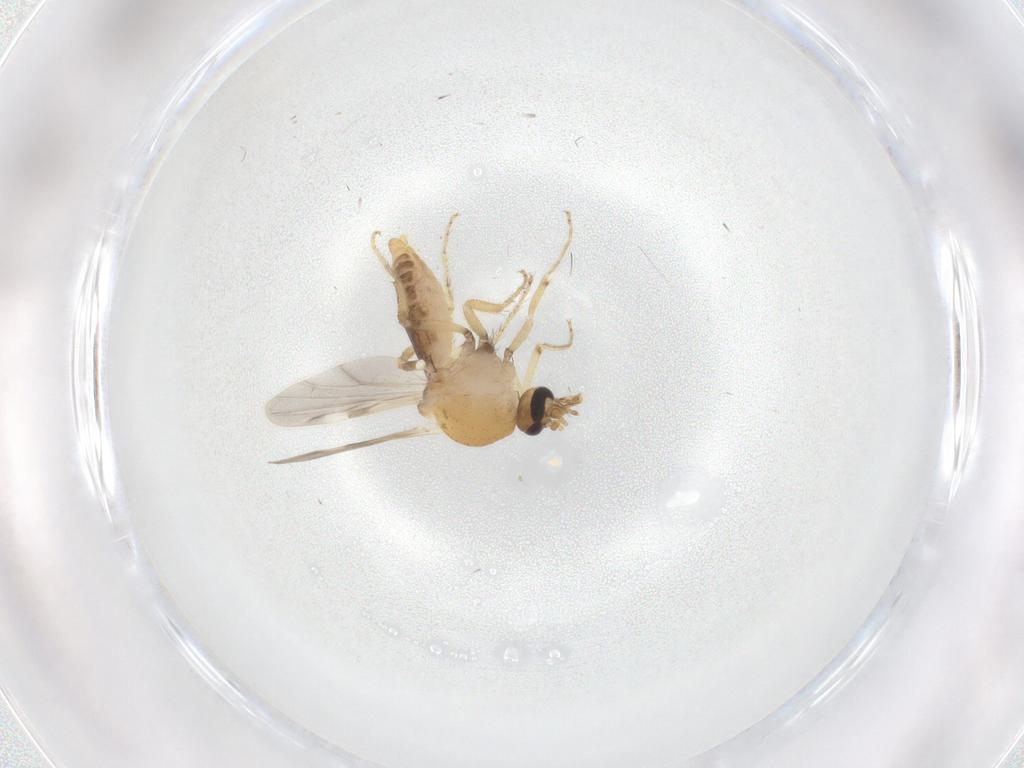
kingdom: Animalia
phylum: Arthropoda
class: Insecta
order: Diptera
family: Ceratopogonidae
